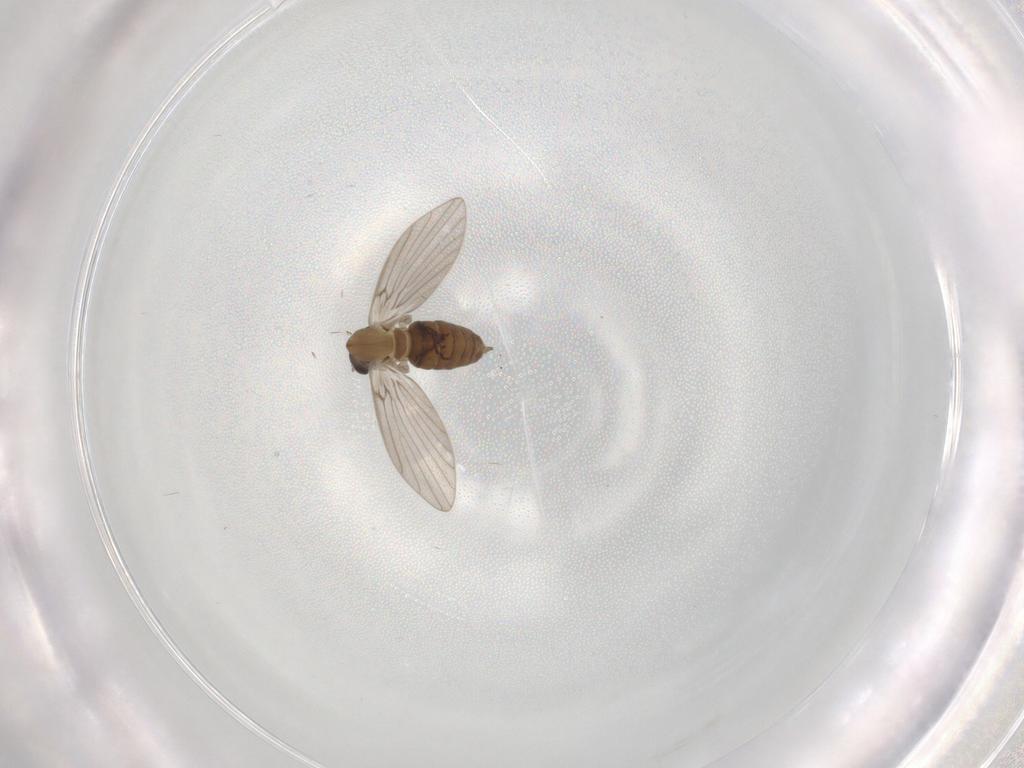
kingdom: Animalia
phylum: Arthropoda
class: Insecta
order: Diptera
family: Psychodidae
